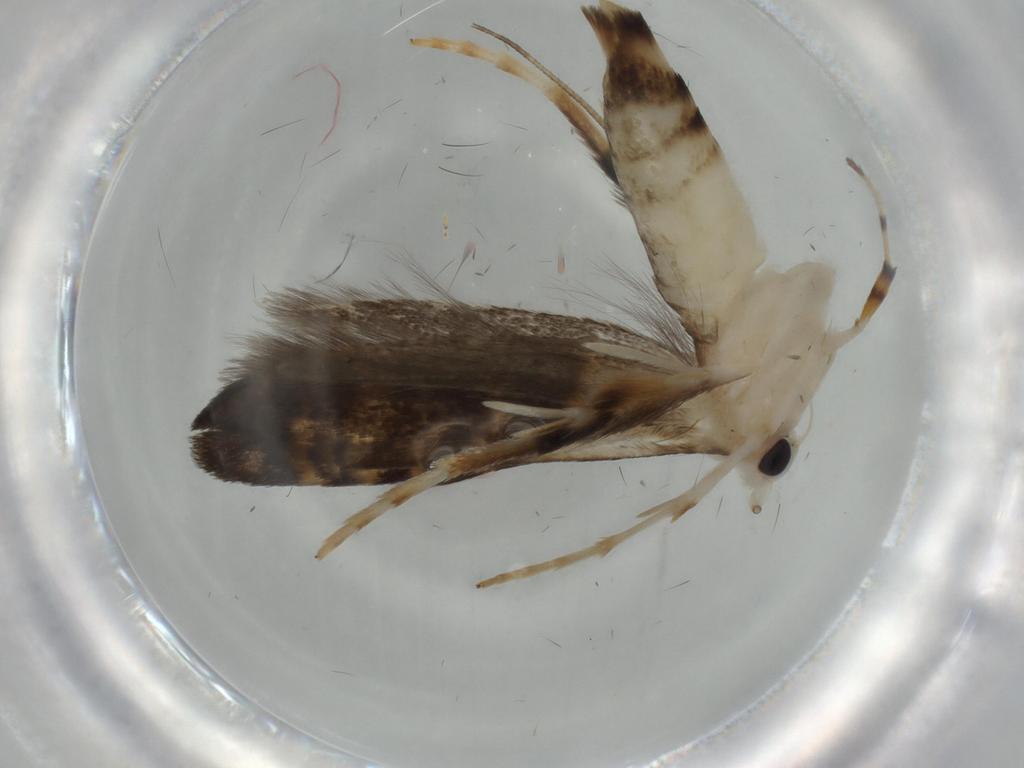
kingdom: Animalia
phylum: Arthropoda
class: Insecta
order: Lepidoptera
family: Yponomeutidae
